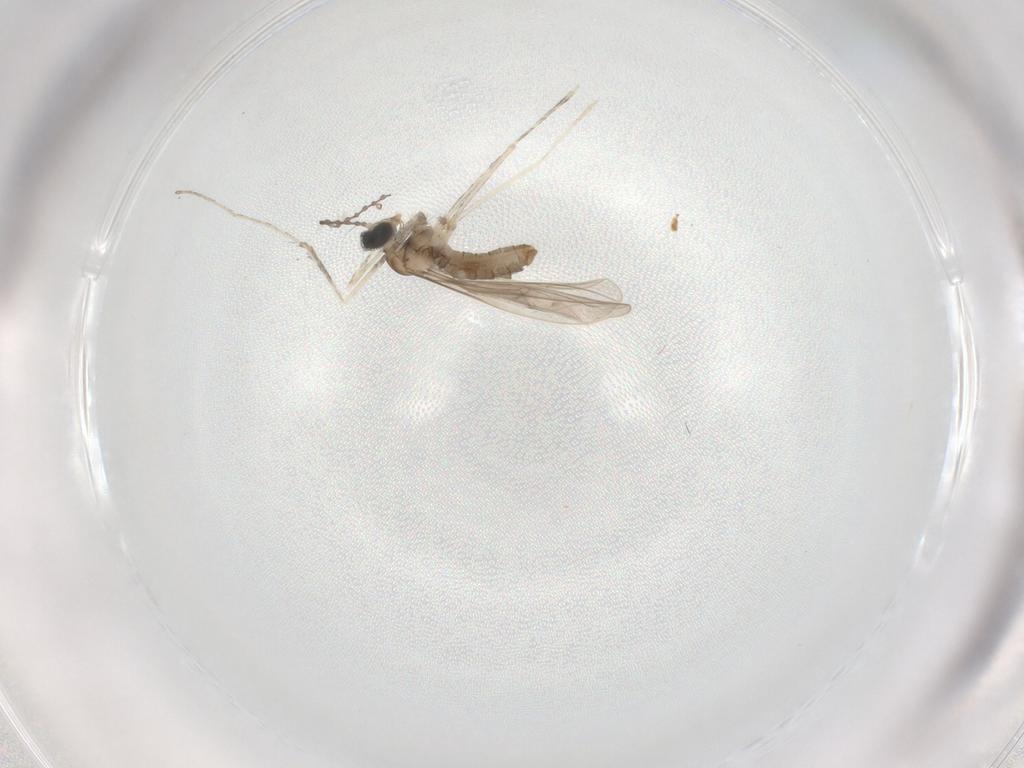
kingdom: Animalia
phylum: Arthropoda
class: Insecta
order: Diptera
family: Cecidomyiidae
